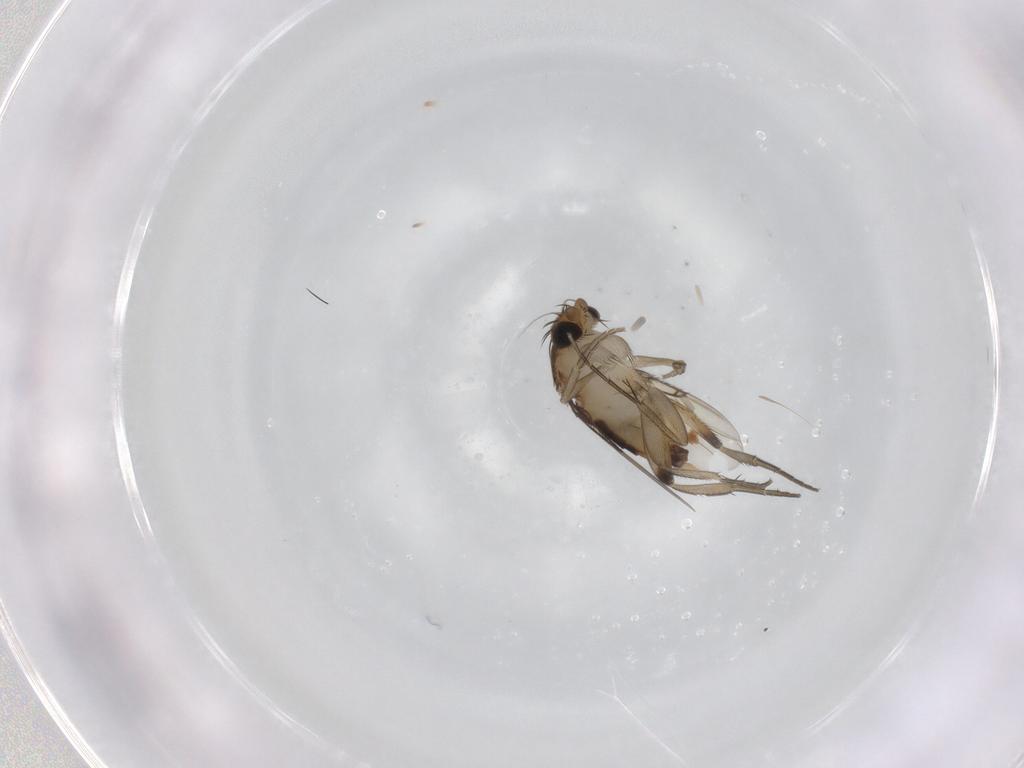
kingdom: Animalia
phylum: Arthropoda
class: Insecta
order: Diptera
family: Phoridae
